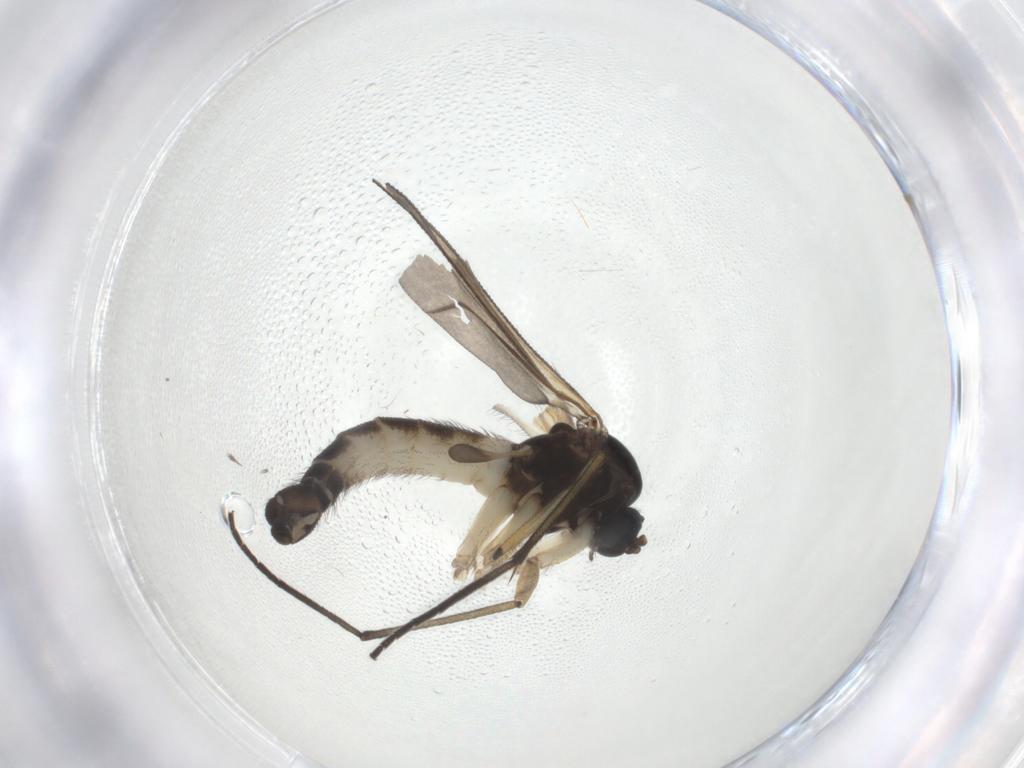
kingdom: Animalia
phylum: Arthropoda
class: Insecta
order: Diptera
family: Sciaridae
